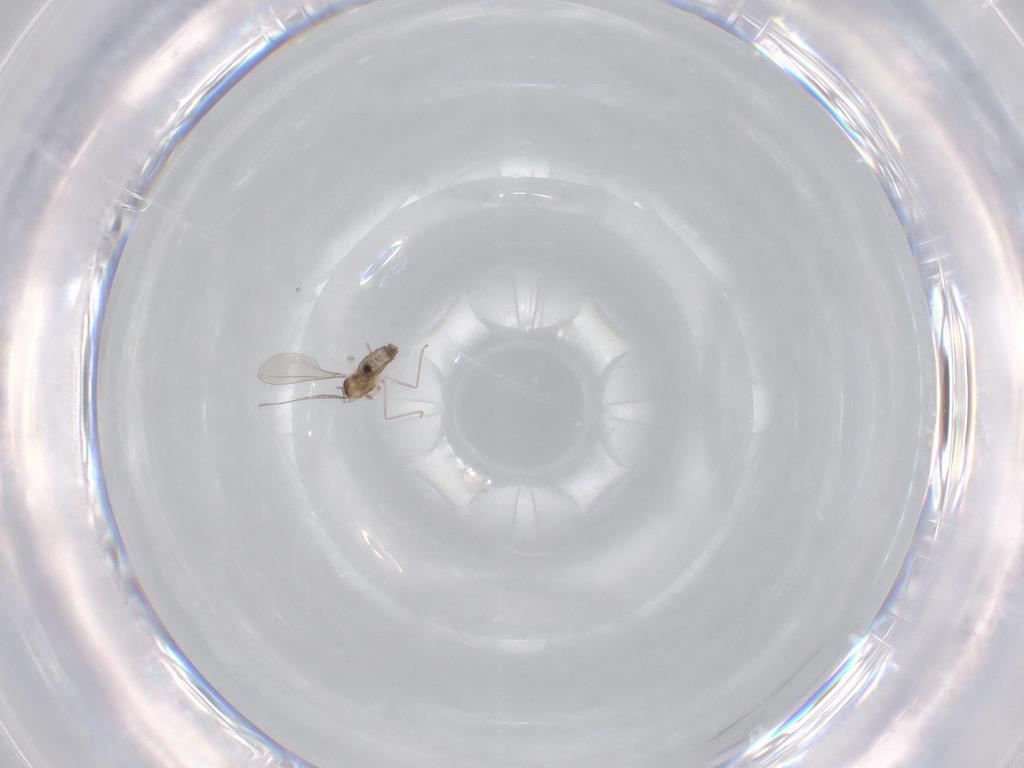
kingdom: Animalia
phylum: Arthropoda
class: Insecta
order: Diptera
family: Chironomidae
